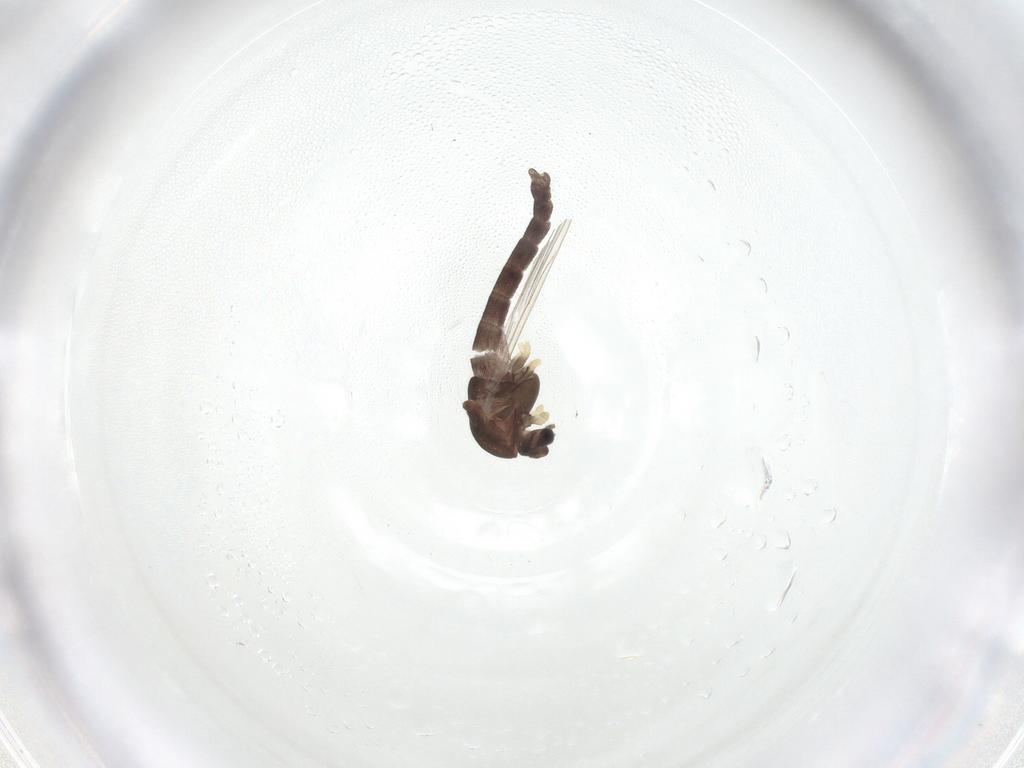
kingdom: Animalia
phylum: Arthropoda
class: Insecta
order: Diptera
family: Chironomidae
